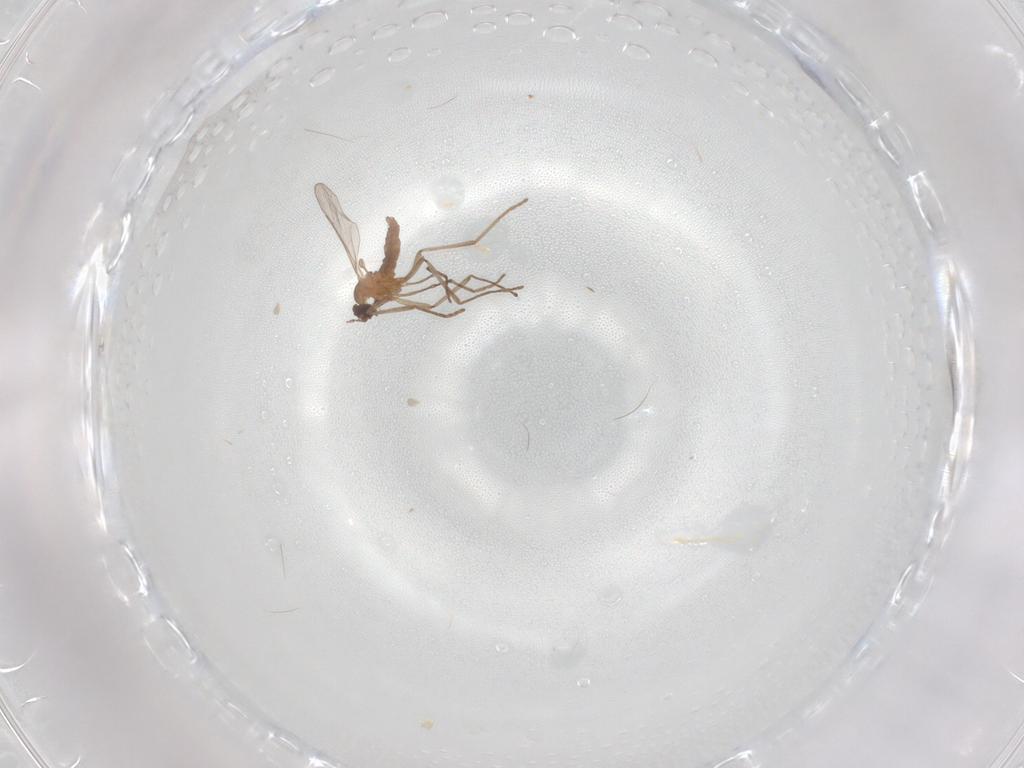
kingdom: Animalia
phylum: Arthropoda
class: Insecta
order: Diptera
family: Cecidomyiidae
